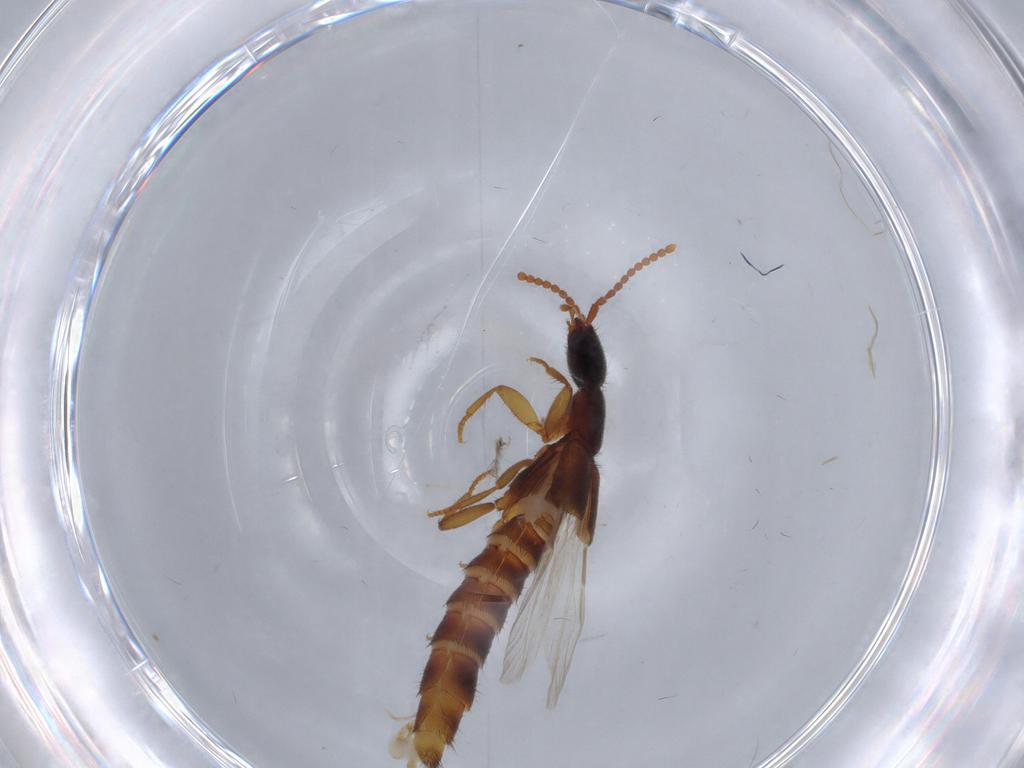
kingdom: Animalia
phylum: Arthropoda
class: Insecta
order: Coleoptera
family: Staphylinidae
